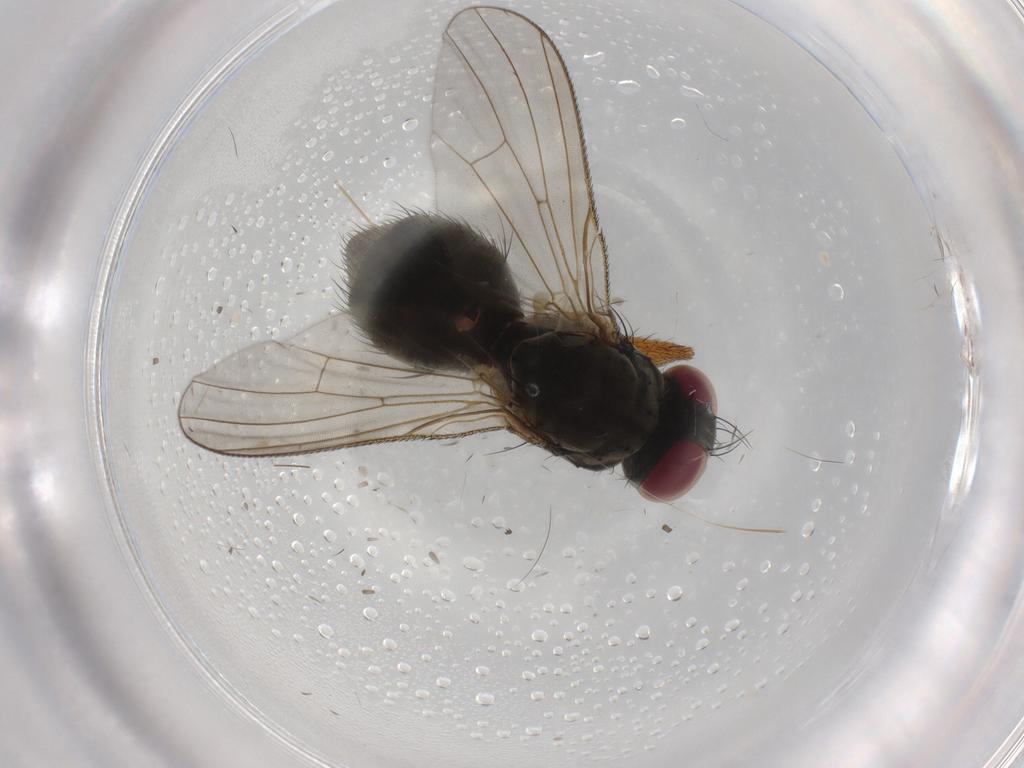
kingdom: Animalia
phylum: Arthropoda
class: Insecta
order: Diptera
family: Muscidae
